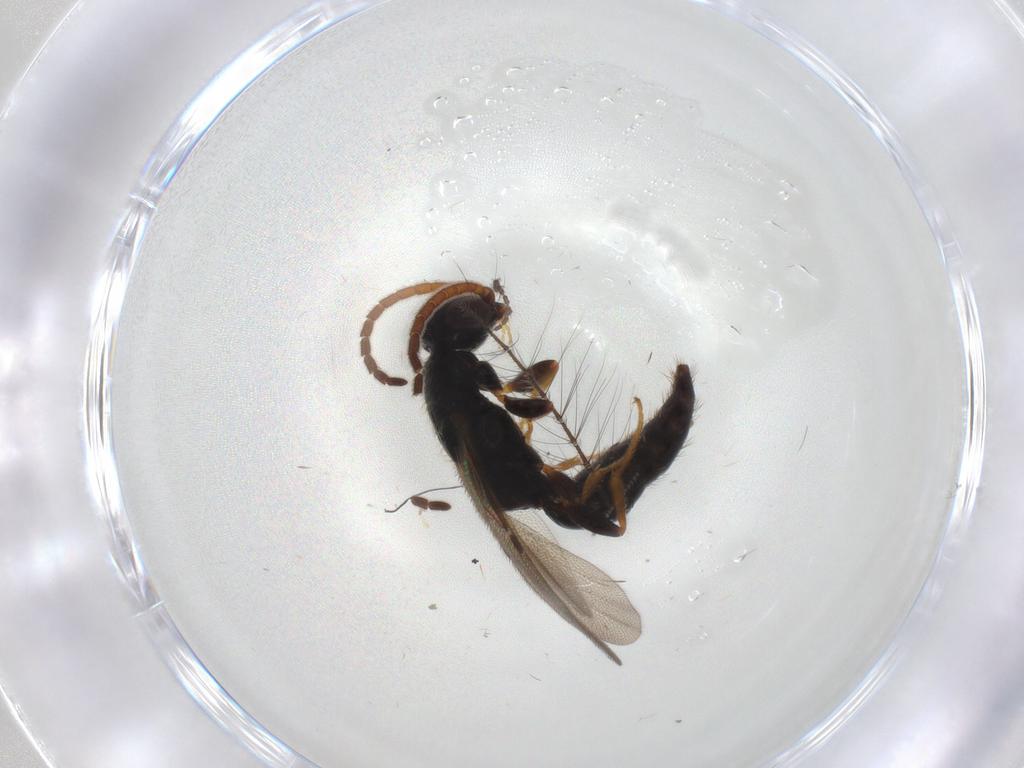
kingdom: Animalia
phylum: Arthropoda
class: Insecta
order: Hymenoptera
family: Bethylidae
